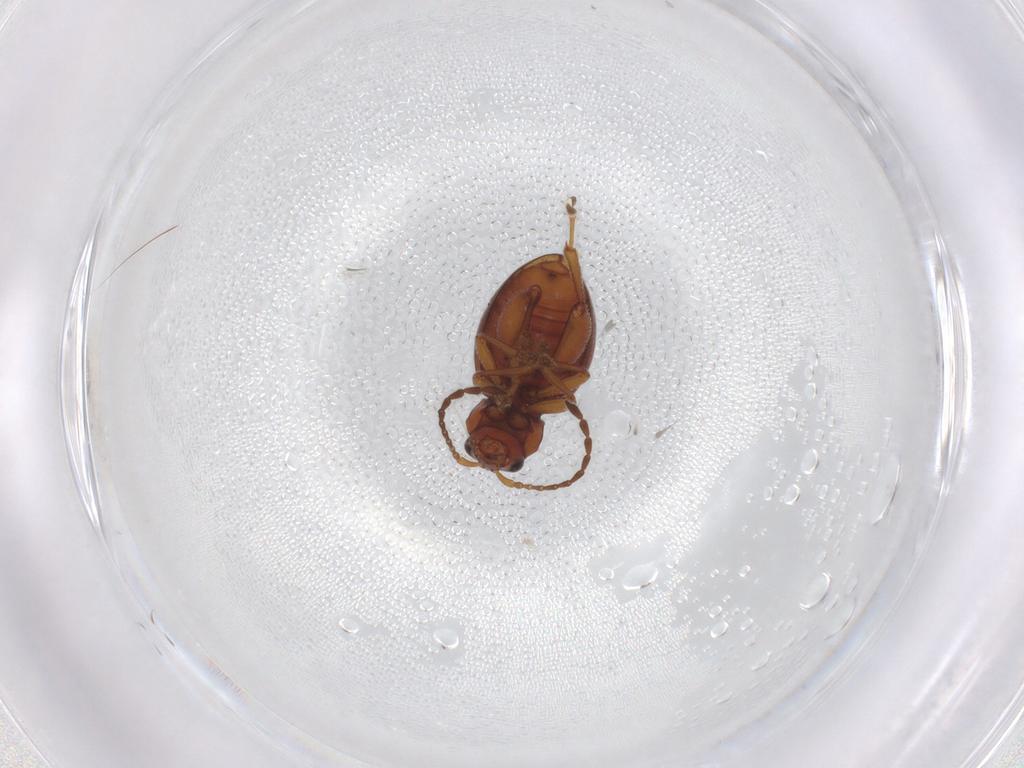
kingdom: Animalia
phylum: Arthropoda
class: Insecta
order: Coleoptera
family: Chrysomelidae
